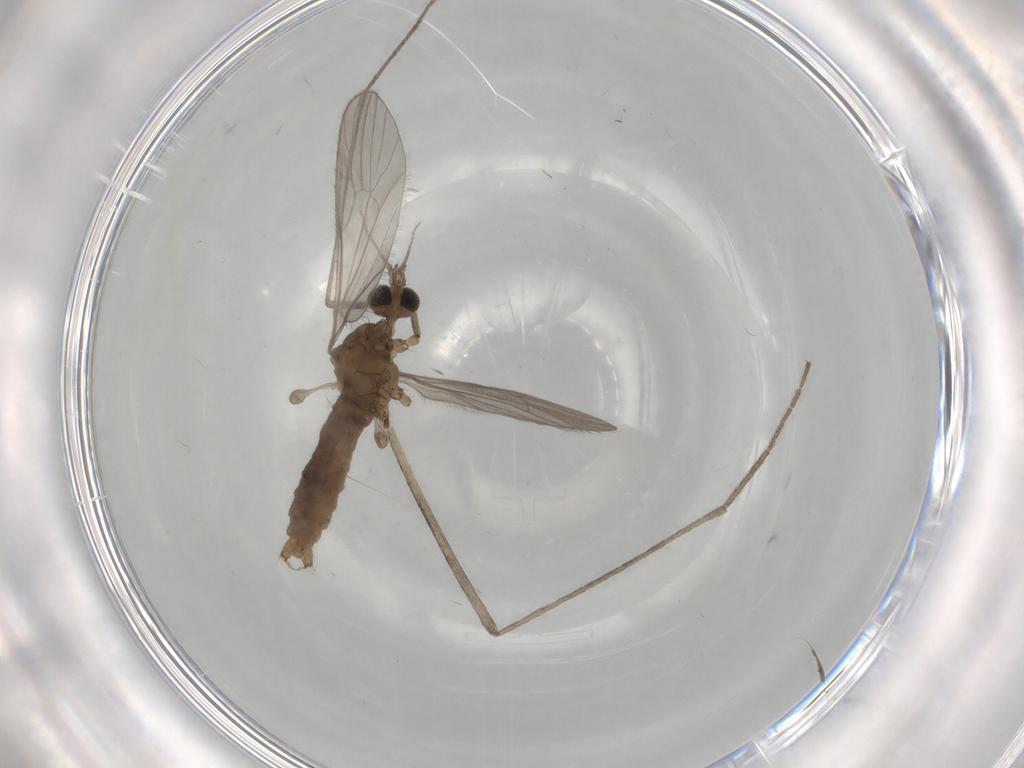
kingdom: Animalia
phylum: Arthropoda
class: Insecta
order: Diptera
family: Limoniidae
